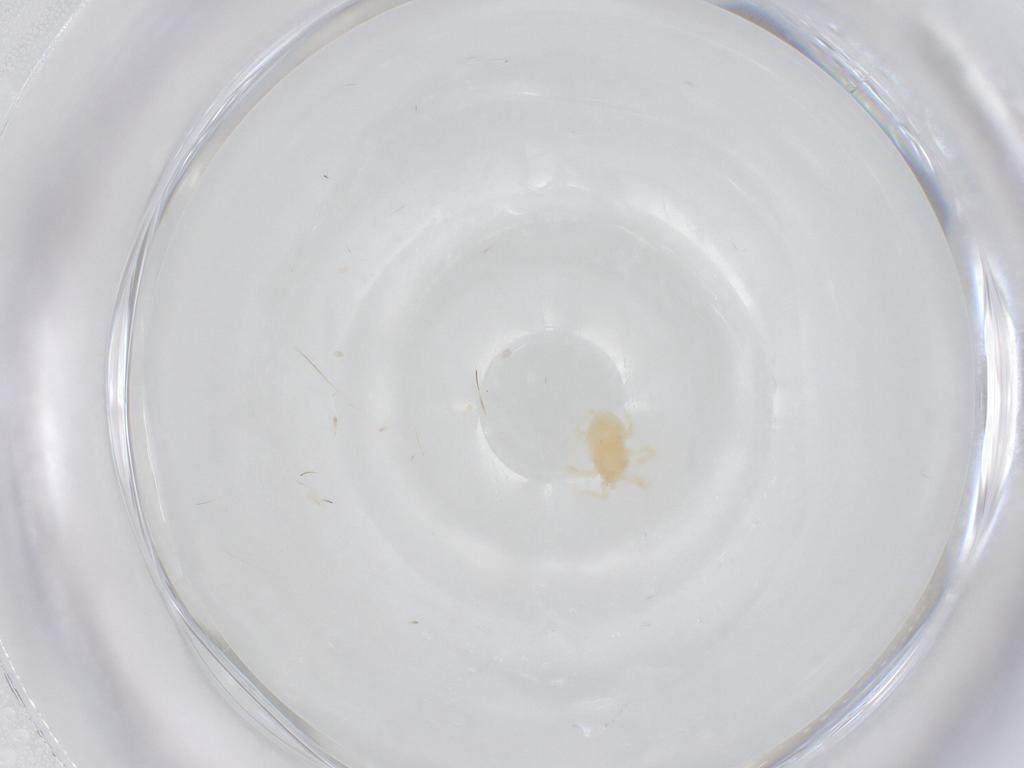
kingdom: Animalia
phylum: Arthropoda
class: Arachnida
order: Trombidiformes
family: Anystidae
